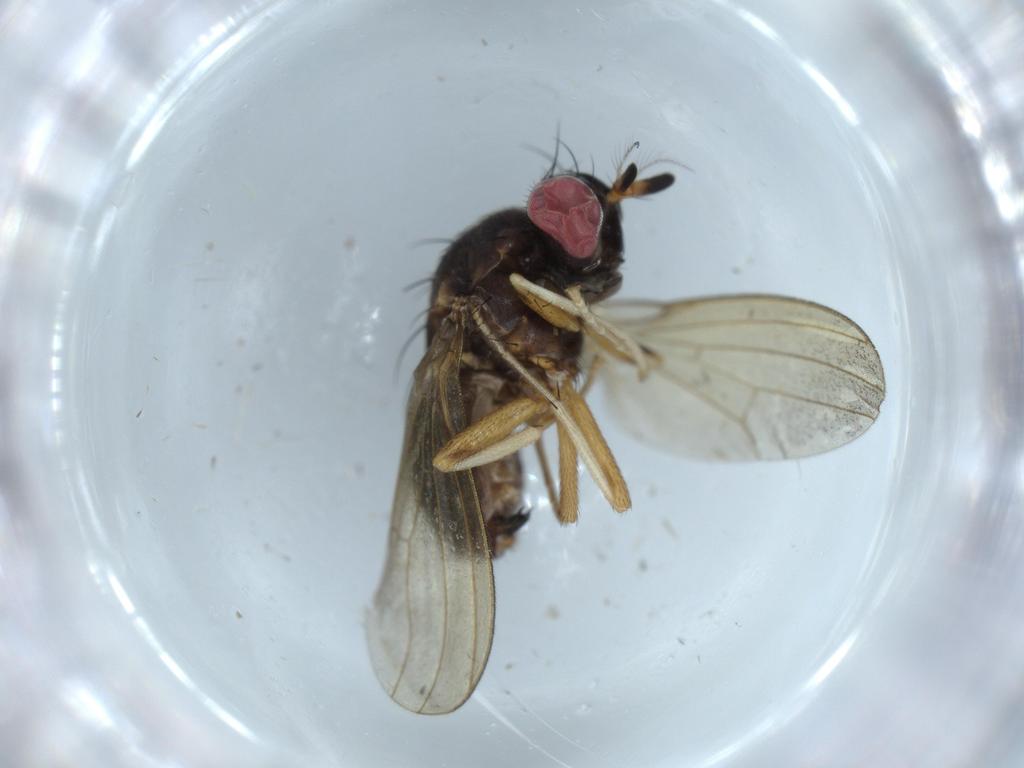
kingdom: Animalia
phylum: Arthropoda
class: Insecta
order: Diptera
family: Cecidomyiidae
